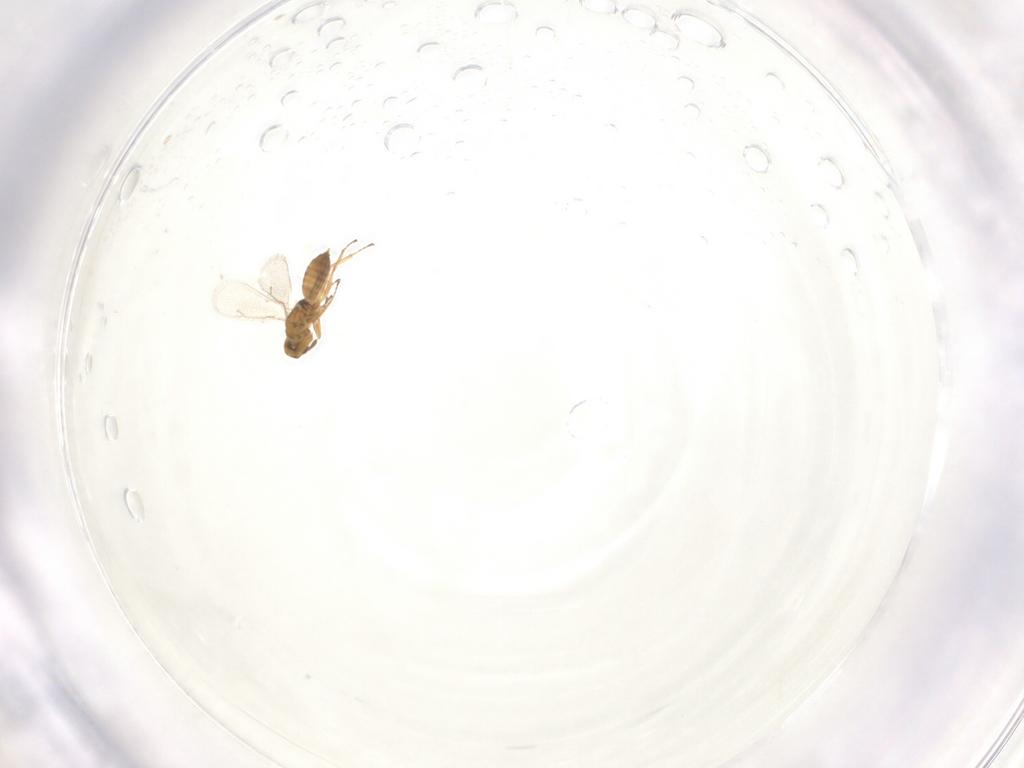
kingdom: Animalia
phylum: Arthropoda
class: Insecta
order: Hymenoptera
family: Eulophidae
